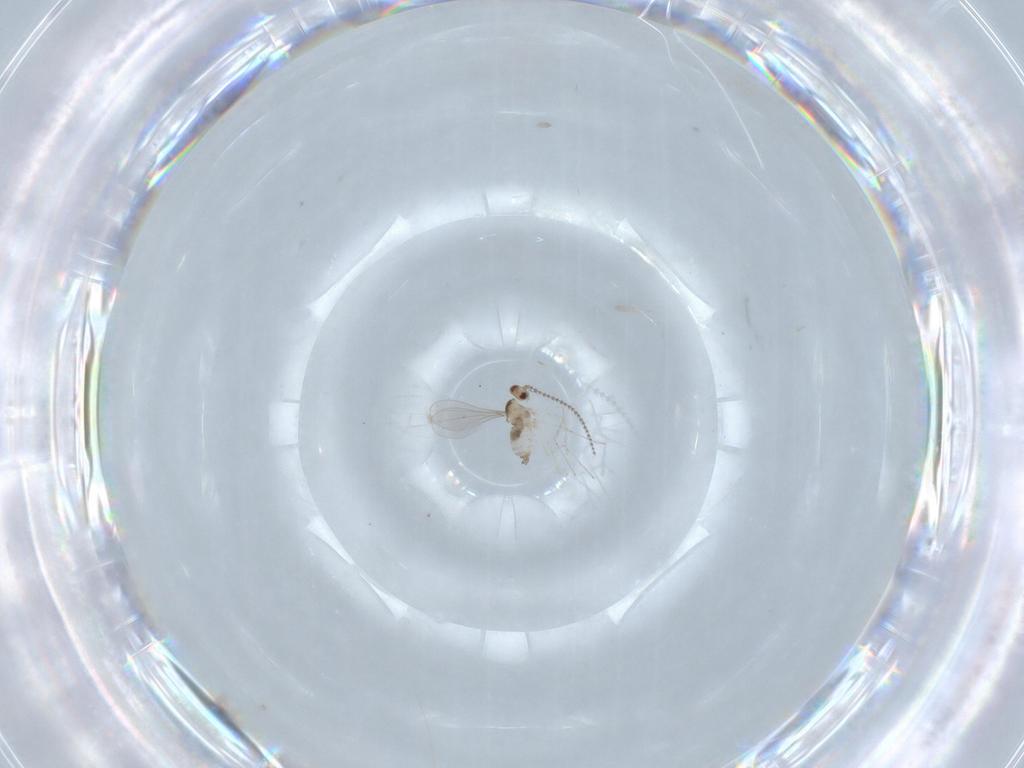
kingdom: Animalia
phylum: Arthropoda
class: Insecta
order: Diptera
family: Cecidomyiidae
